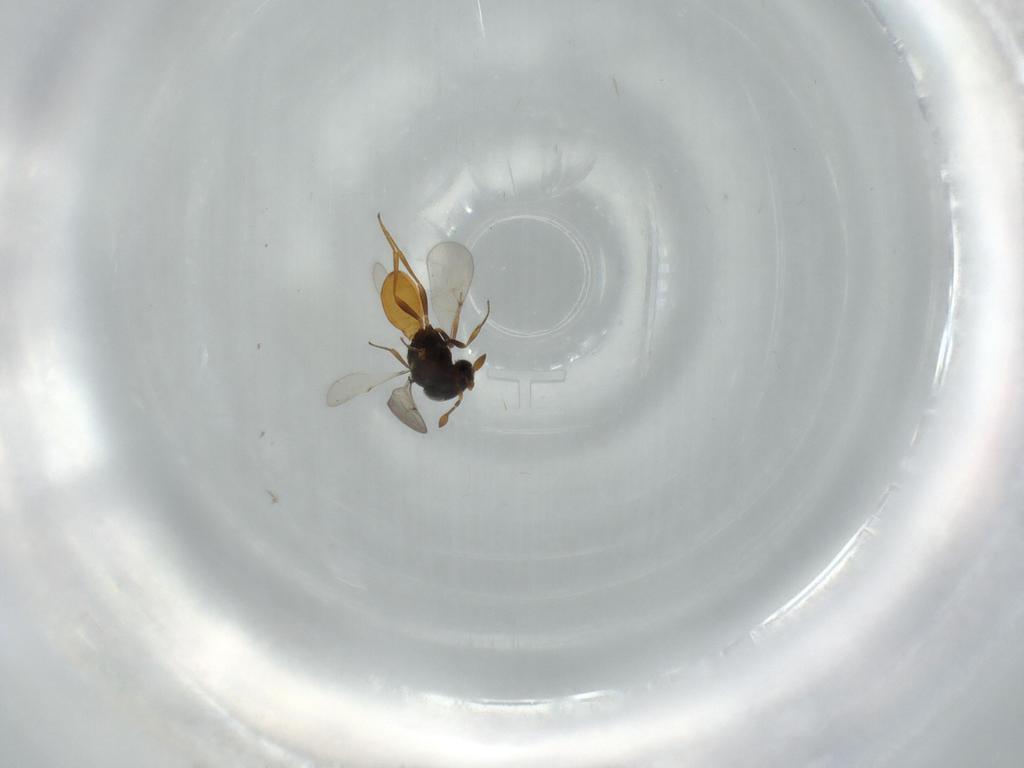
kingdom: Animalia
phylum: Arthropoda
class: Insecta
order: Hymenoptera
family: Scelionidae
